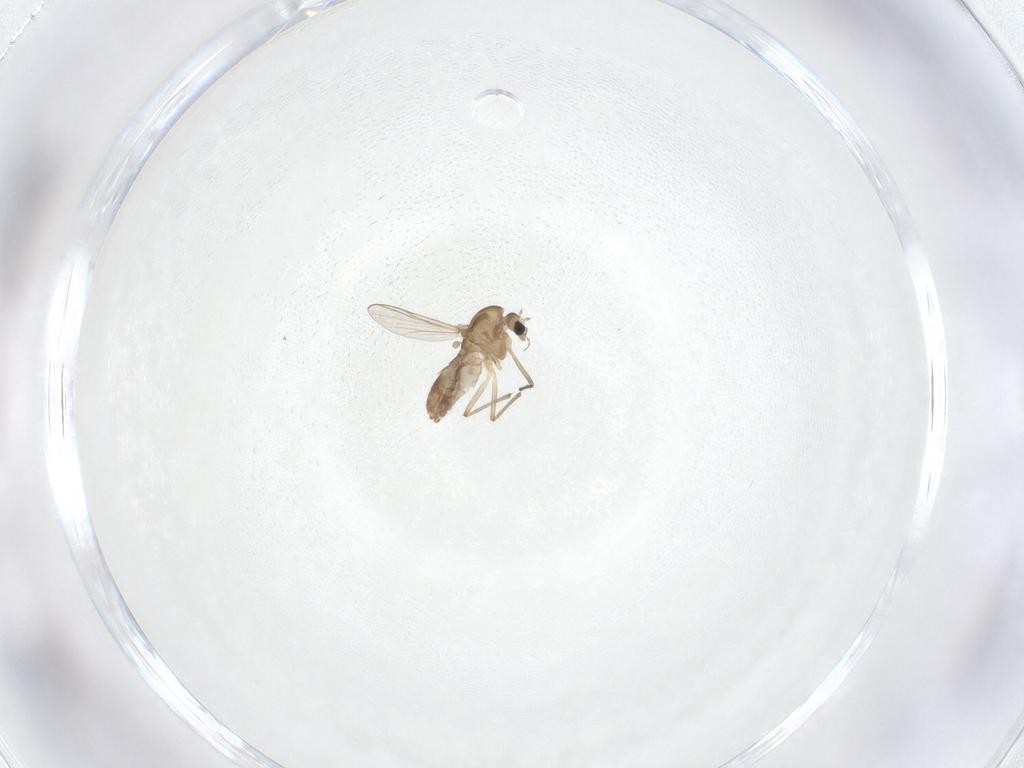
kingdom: Animalia
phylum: Arthropoda
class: Insecta
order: Diptera
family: Chironomidae
